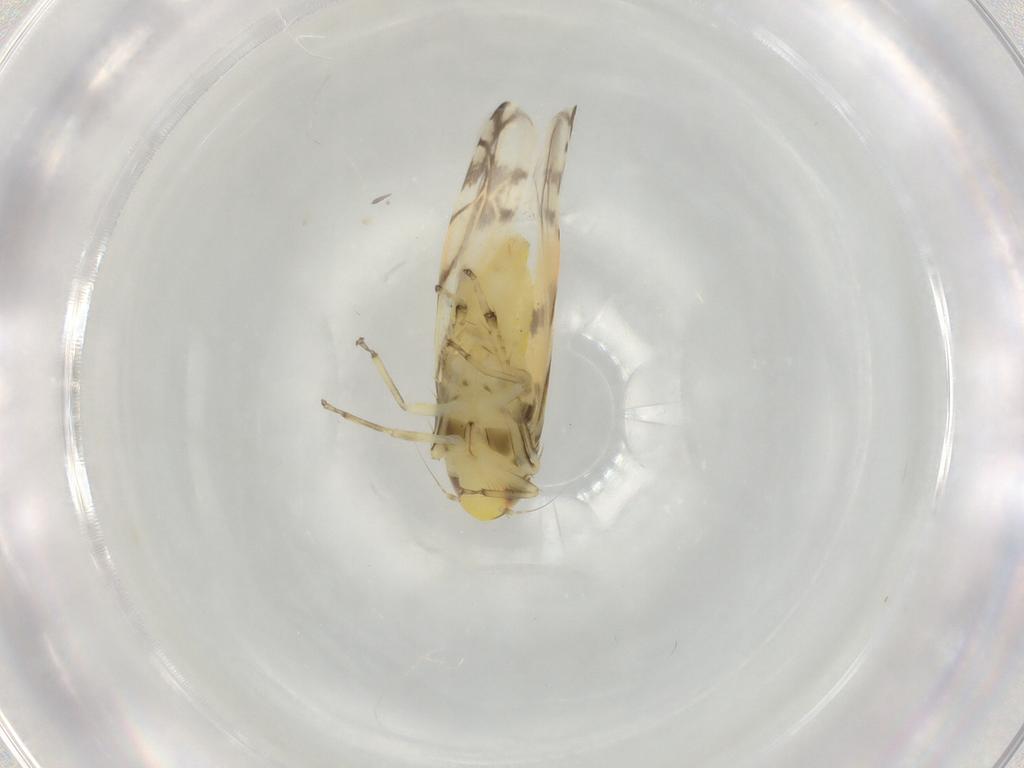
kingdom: Animalia
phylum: Arthropoda
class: Insecta
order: Hemiptera
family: Cicadellidae
